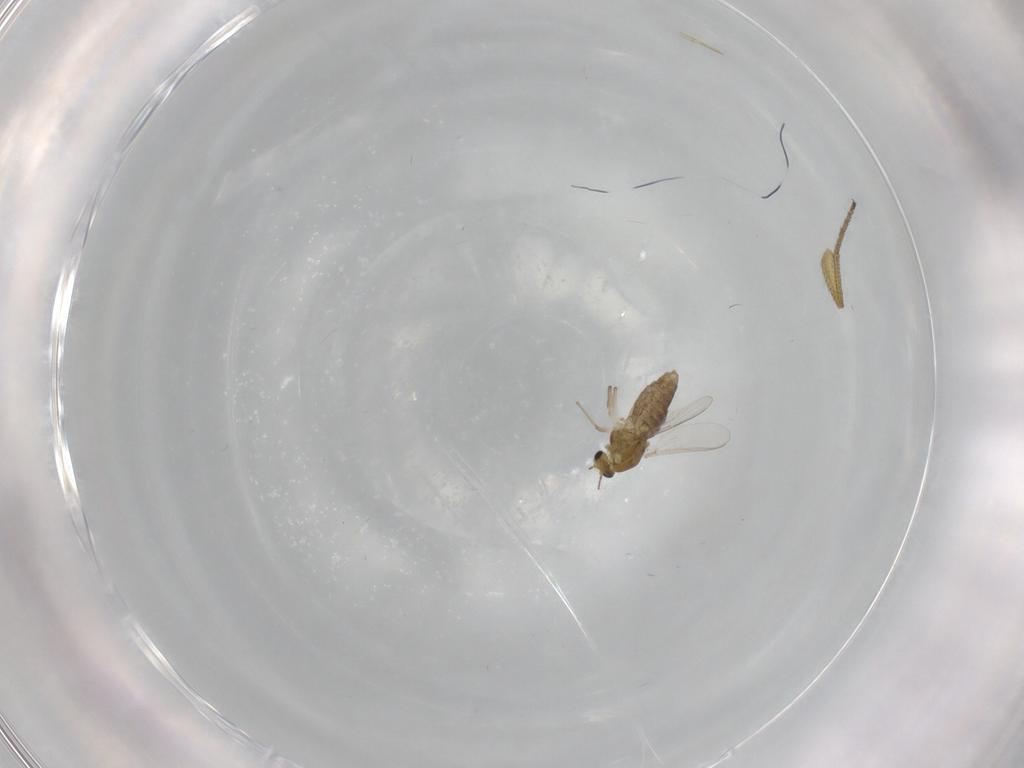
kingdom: Animalia
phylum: Arthropoda
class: Insecta
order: Diptera
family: Chironomidae
